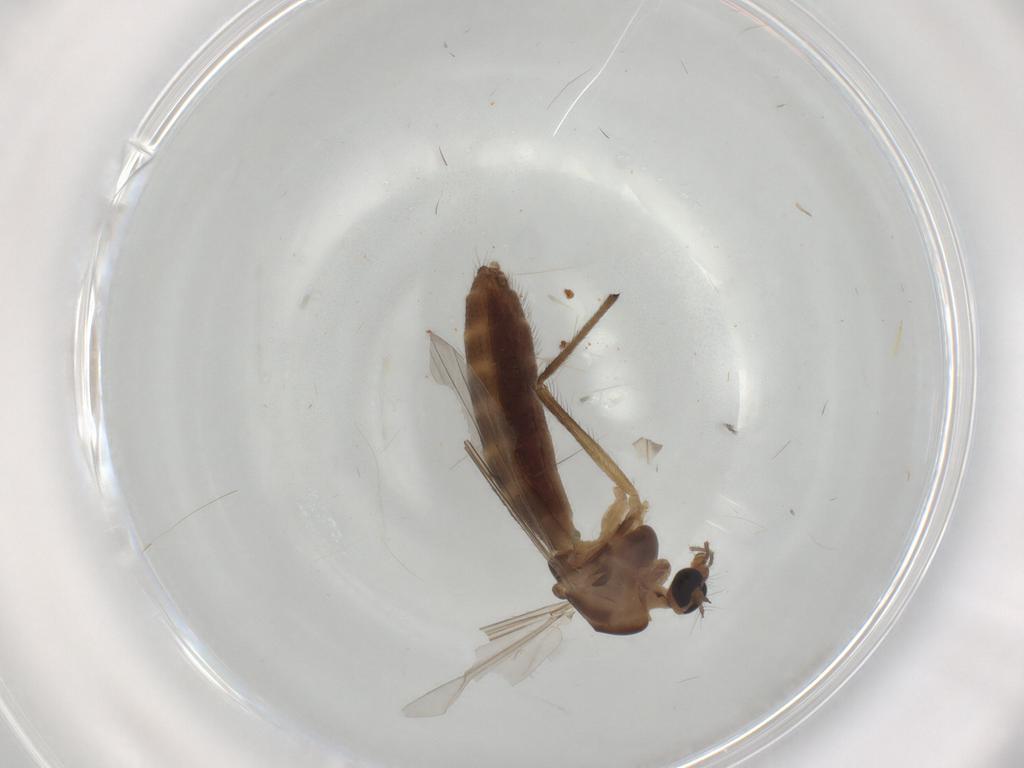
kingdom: Animalia
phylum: Arthropoda
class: Insecta
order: Diptera
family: Chironomidae
